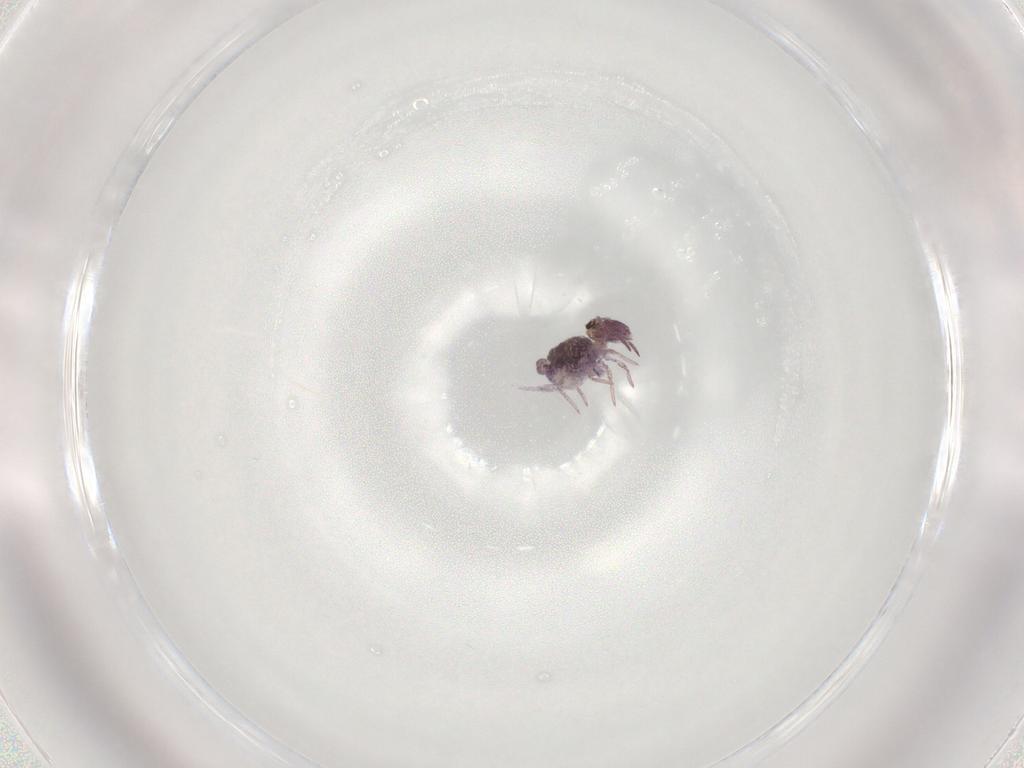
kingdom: Animalia
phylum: Arthropoda
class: Collembola
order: Symphypleona
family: Bourletiellidae
